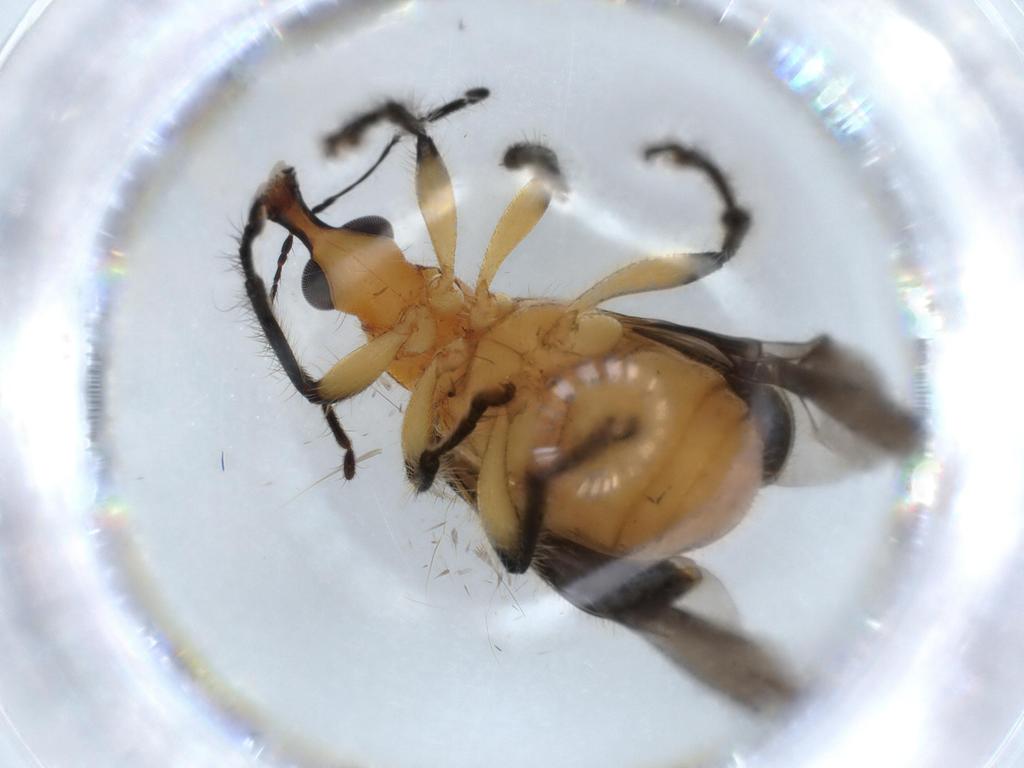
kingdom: Animalia
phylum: Arthropoda
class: Insecta
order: Coleoptera
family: Attelabidae
